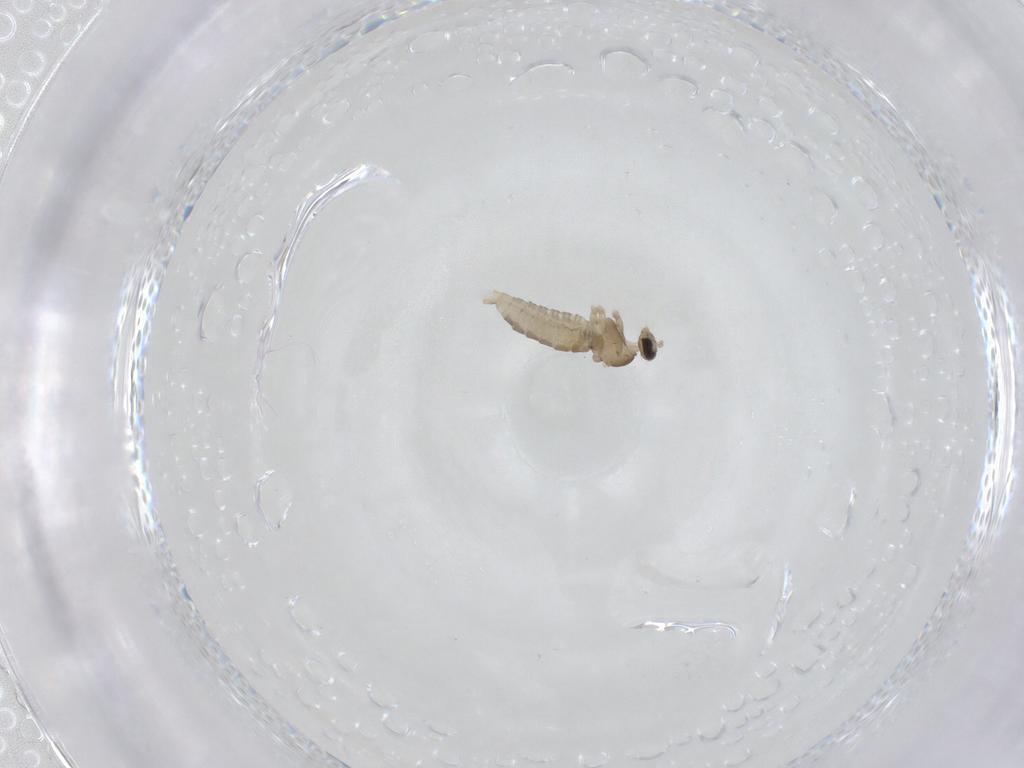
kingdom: Animalia
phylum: Arthropoda
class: Insecta
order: Diptera
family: Cecidomyiidae
